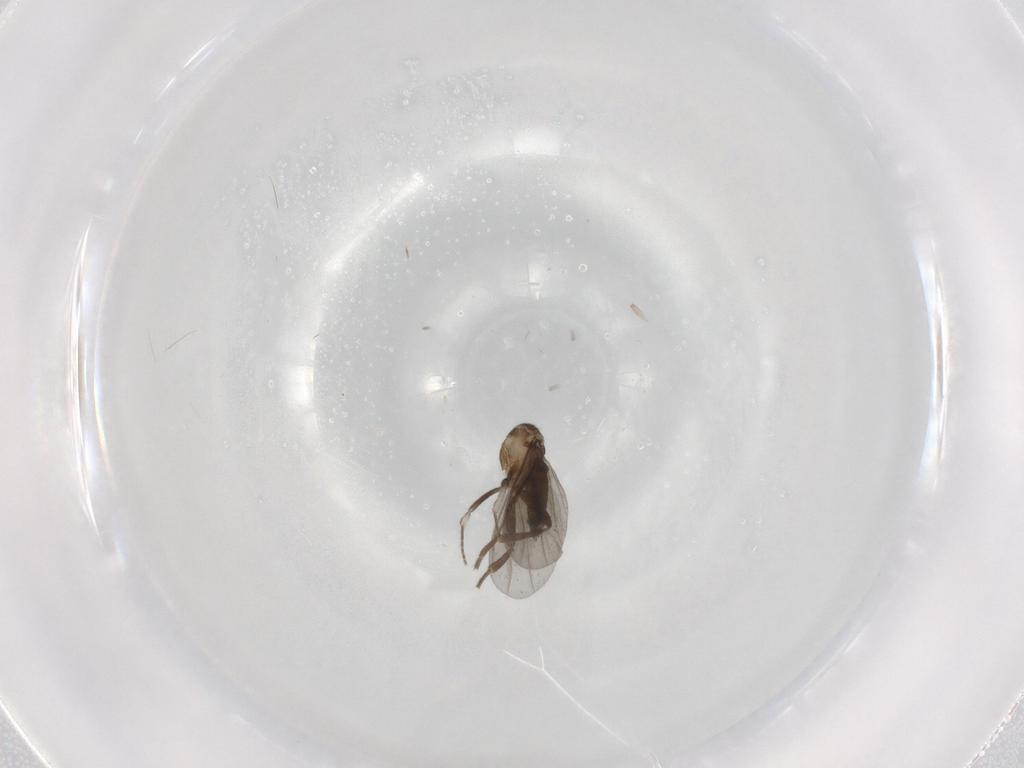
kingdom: Animalia
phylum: Arthropoda
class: Insecta
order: Diptera
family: Phoridae
